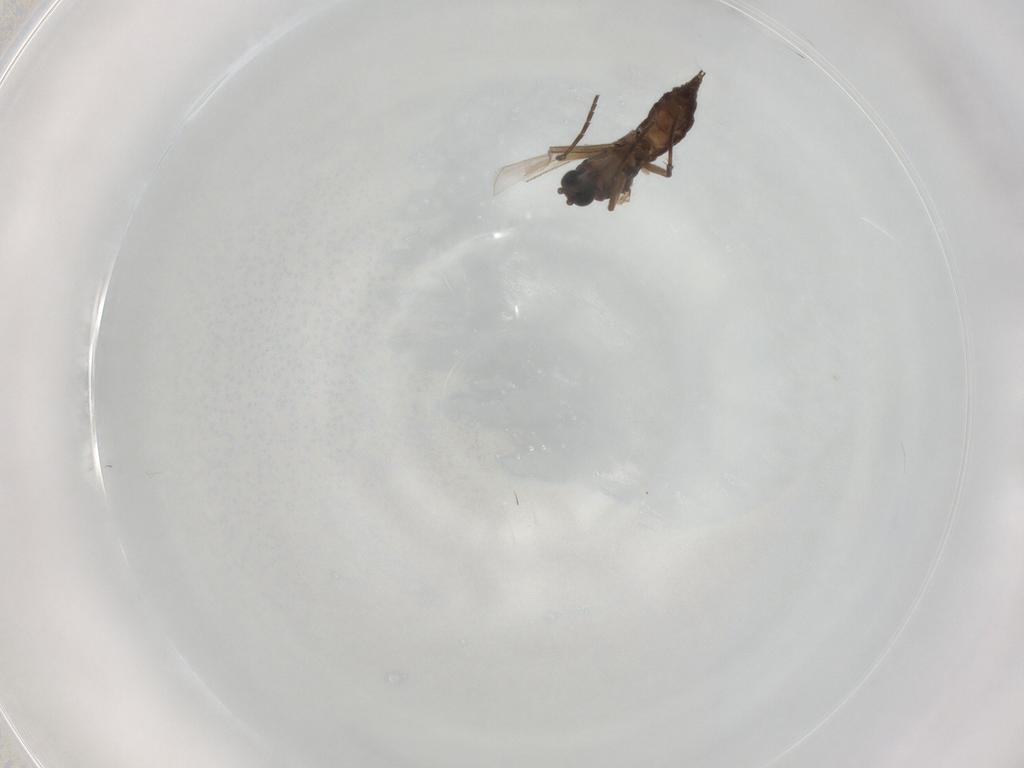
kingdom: Animalia
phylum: Arthropoda
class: Insecta
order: Diptera
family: Sciaridae
